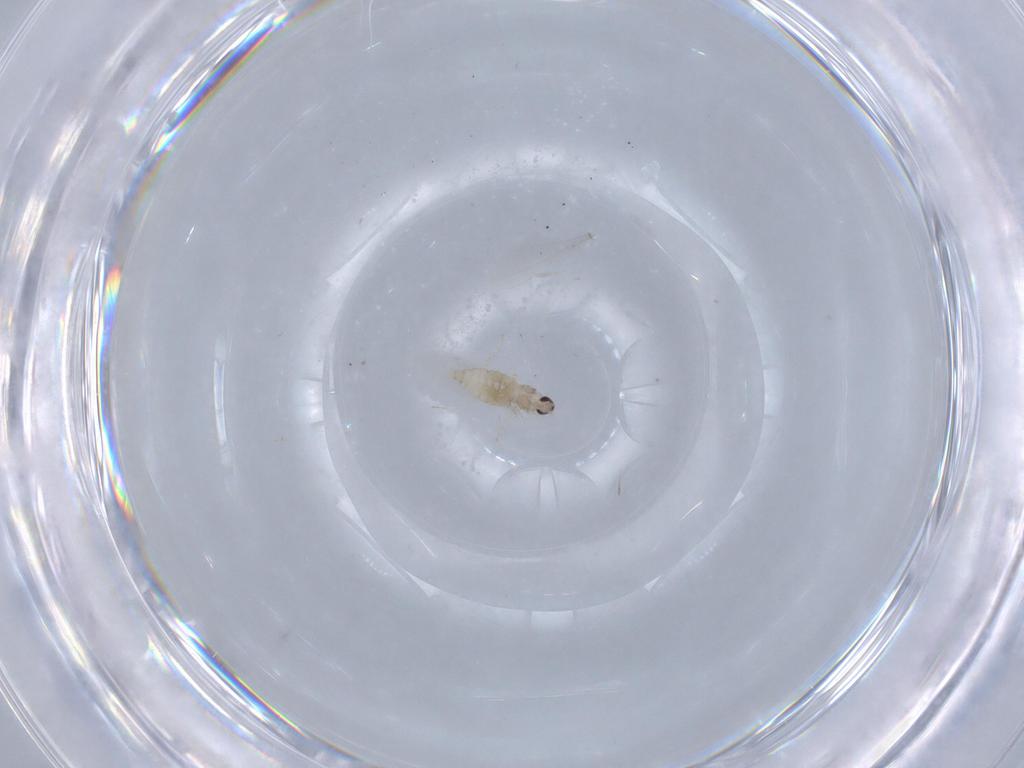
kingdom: Animalia
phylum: Arthropoda
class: Insecta
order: Diptera
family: Cecidomyiidae
